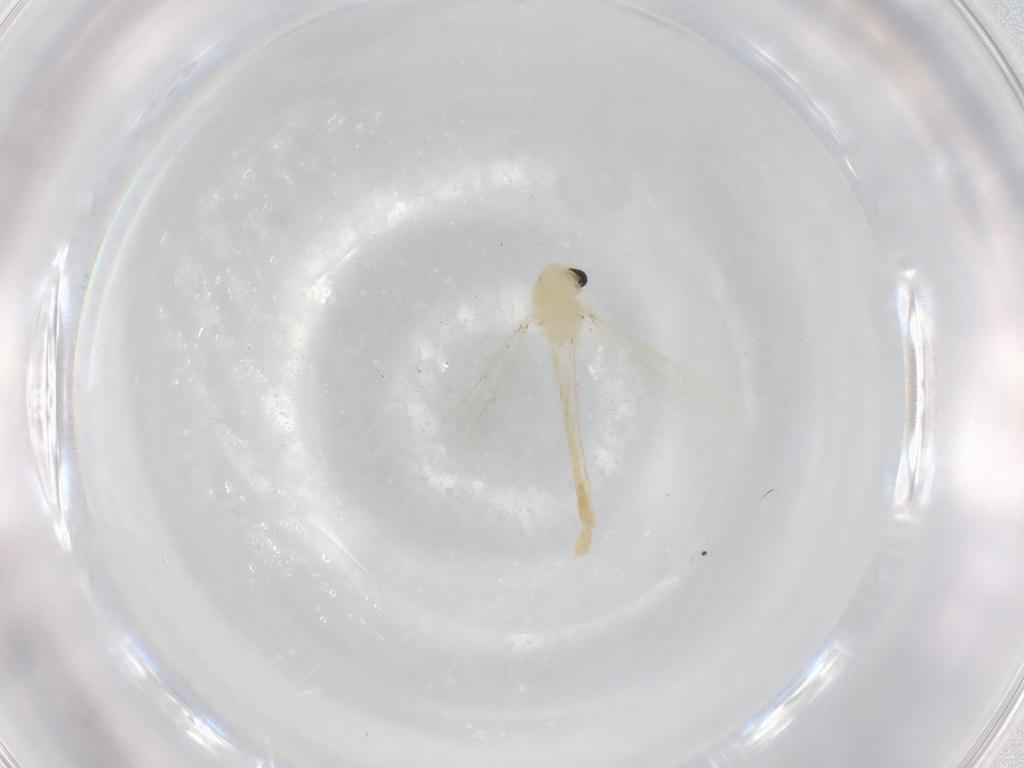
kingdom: Animalia
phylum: Arthropoda
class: Insecta
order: Diptera
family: Chironomidae
